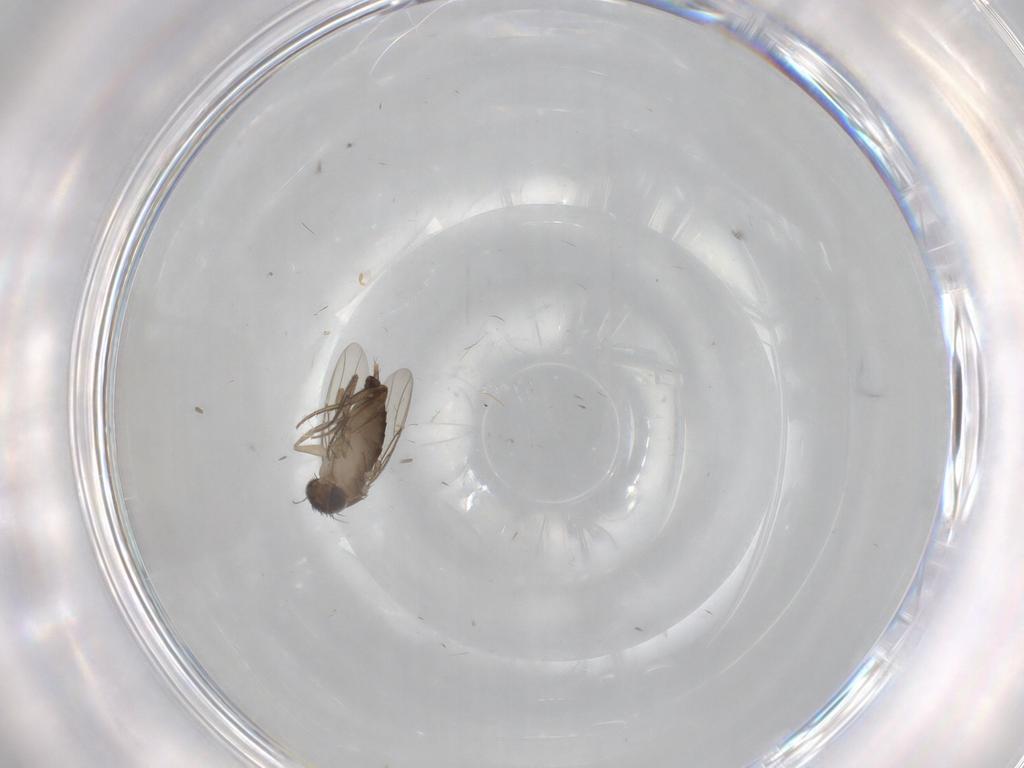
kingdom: Animalia
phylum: Arthropoda
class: Insecta
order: Diptera
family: Phoridae
